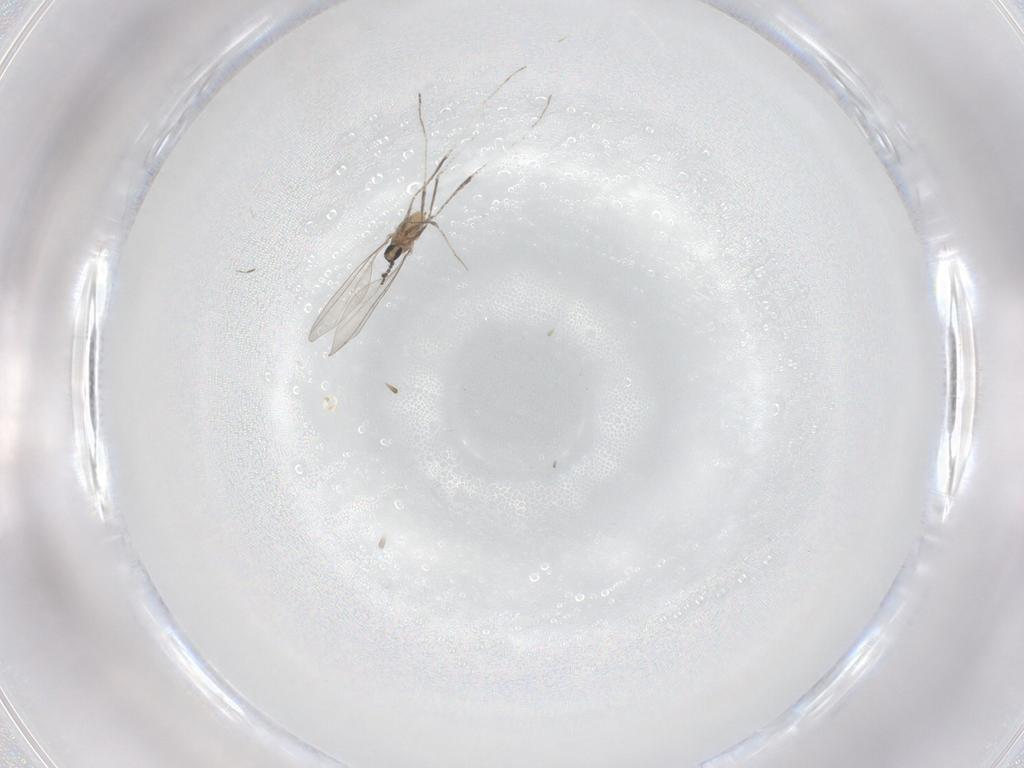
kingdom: Animalia
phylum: Arthropoda
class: Insecta
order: Diptera
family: Cecidomyiidae
